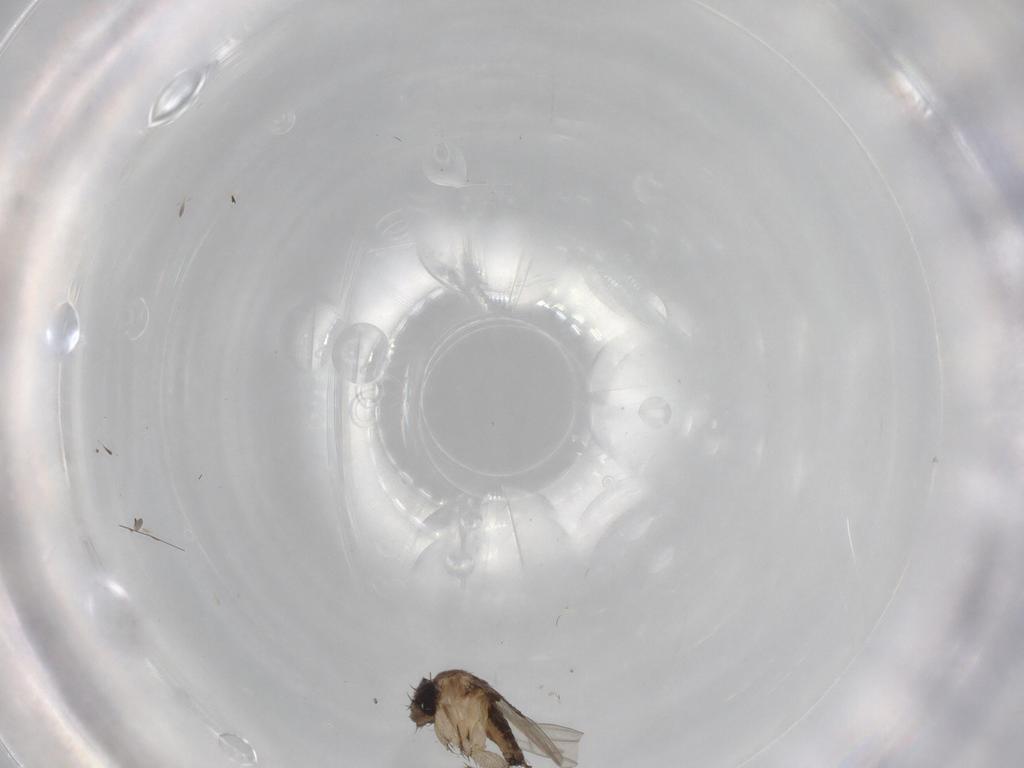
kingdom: Animalia
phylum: Arthropoda
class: Insecta
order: Diptera
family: Phoridae
